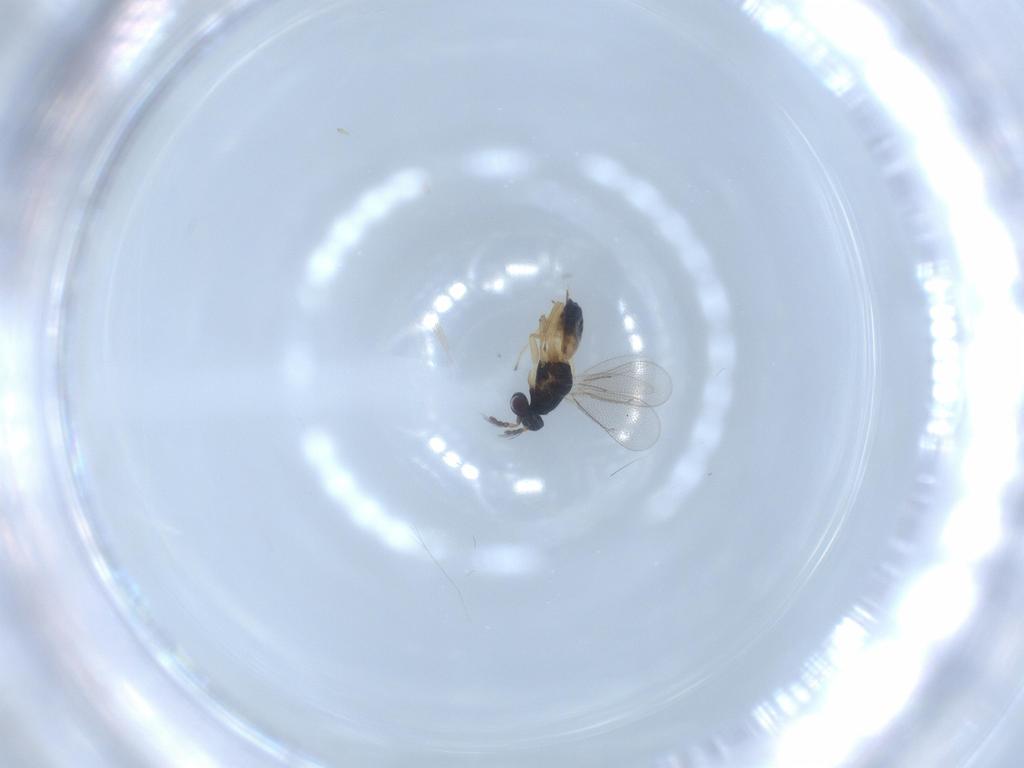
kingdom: Animalia
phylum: Arthropoda
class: Insecta
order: Hymenoptera
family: Eulophidae
